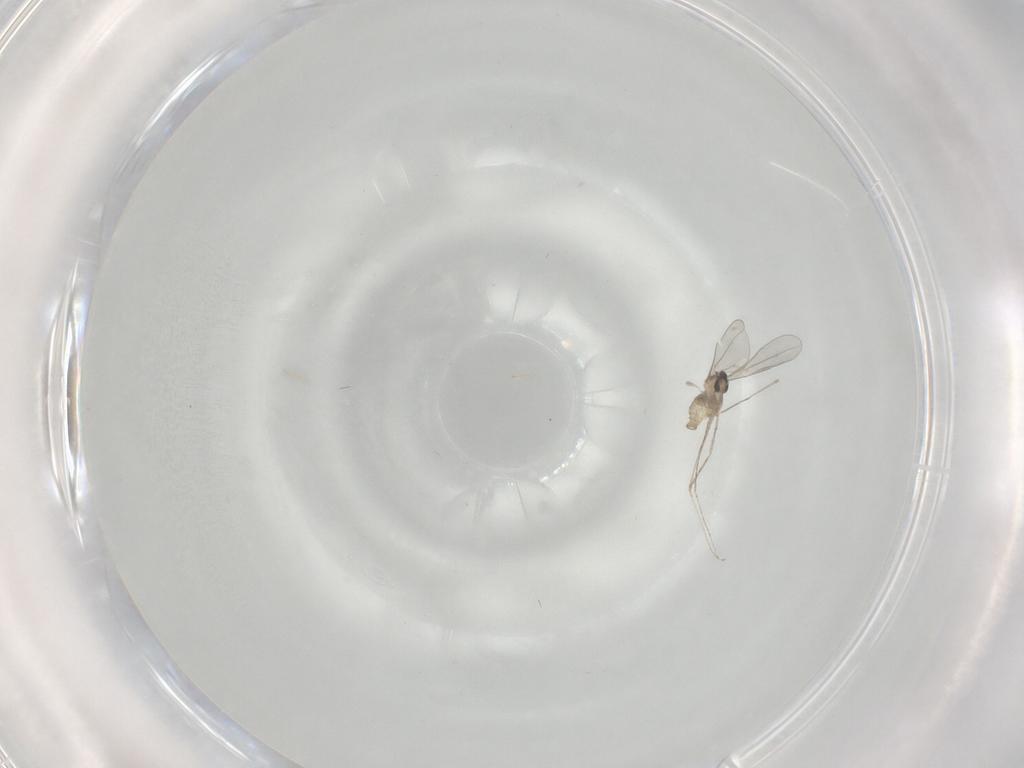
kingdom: Animalia
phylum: Arthropoda
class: Insecta
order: Diptera
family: Cecidomyiidae
